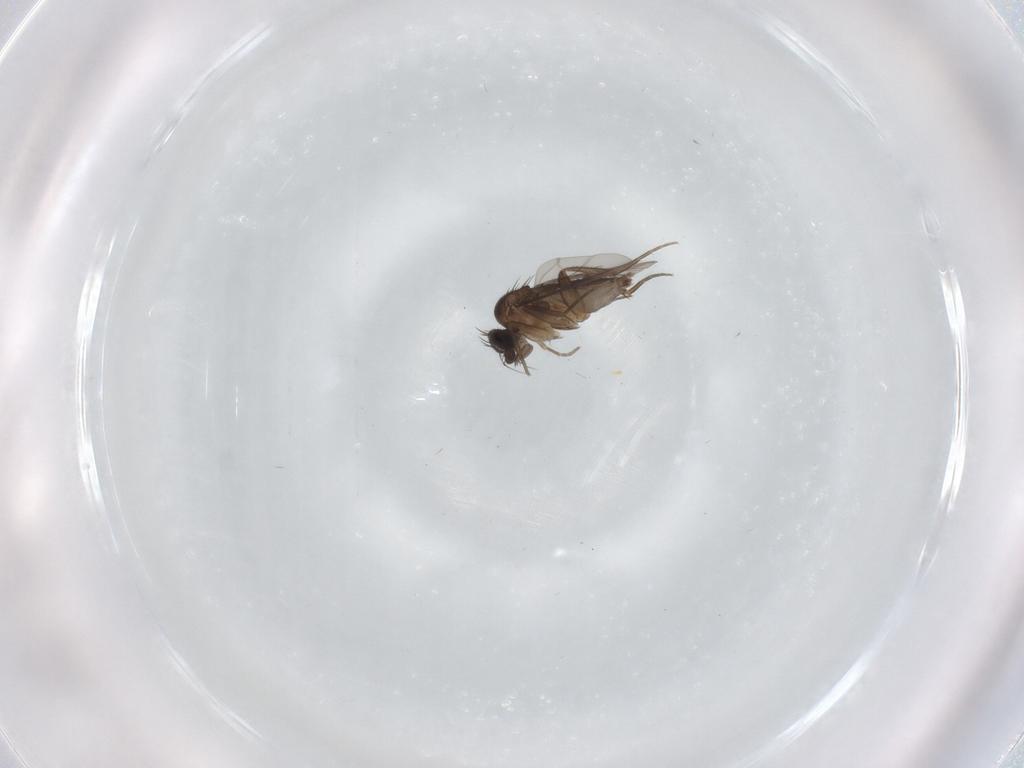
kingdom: Animalia
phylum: Arthropoda
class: Insecta
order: Diptera
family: Phoridae
